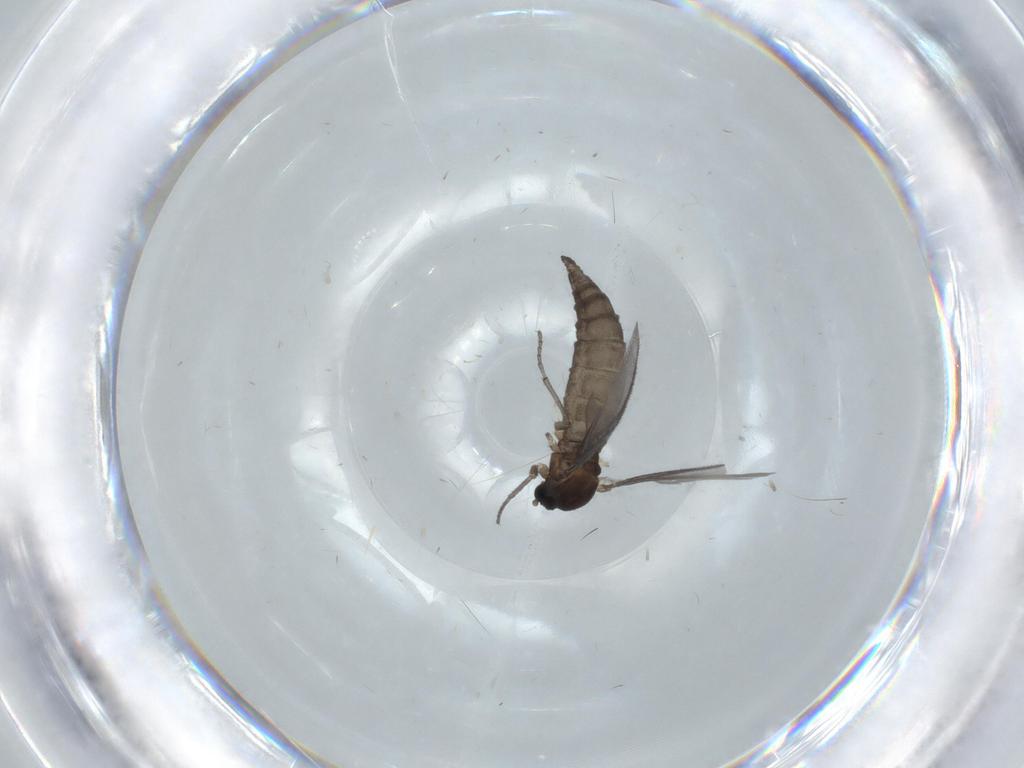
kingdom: Animalia
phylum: Arthropoda
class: Insecta
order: Diptera
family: Sciaridae
